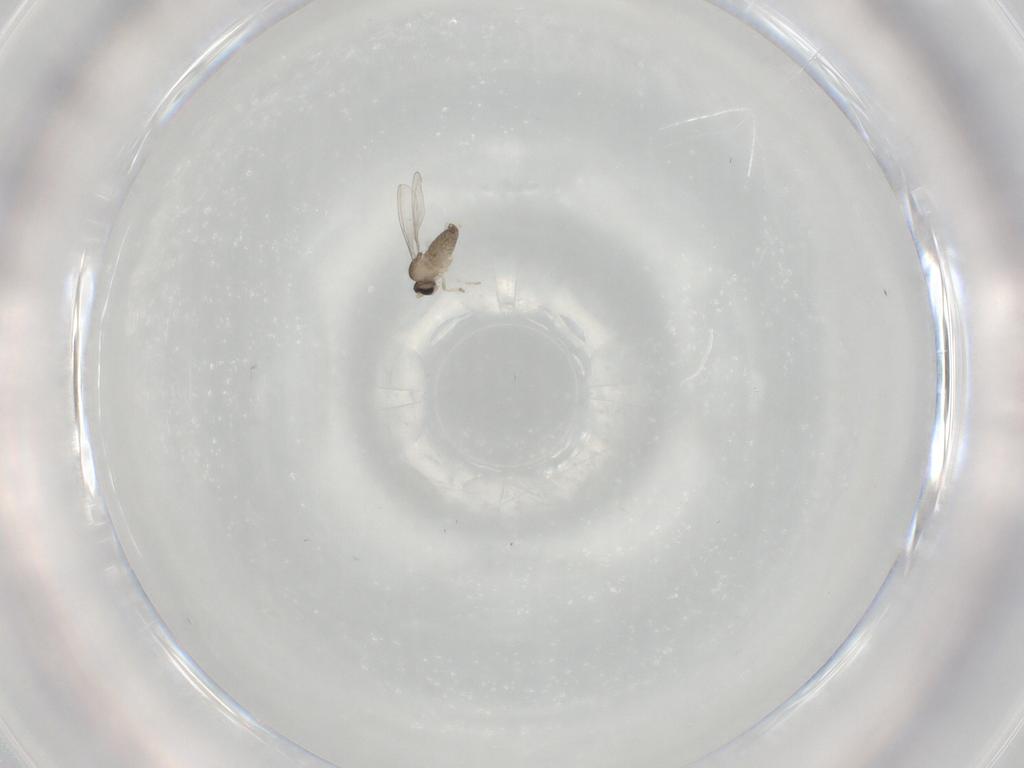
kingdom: Animalia
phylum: Arthropoda
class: Insecta
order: Diptera
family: Cecidomyiidae
